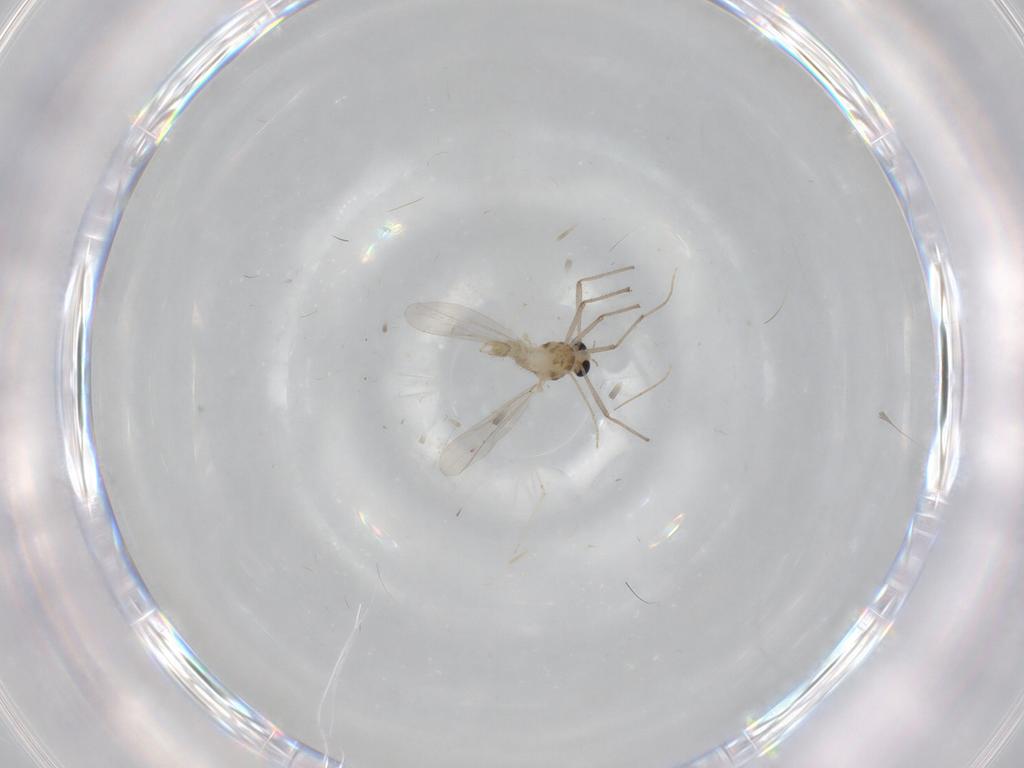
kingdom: Animalia
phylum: Arthropoda
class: Insecta
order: Diptera
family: Cecidomyiidae
